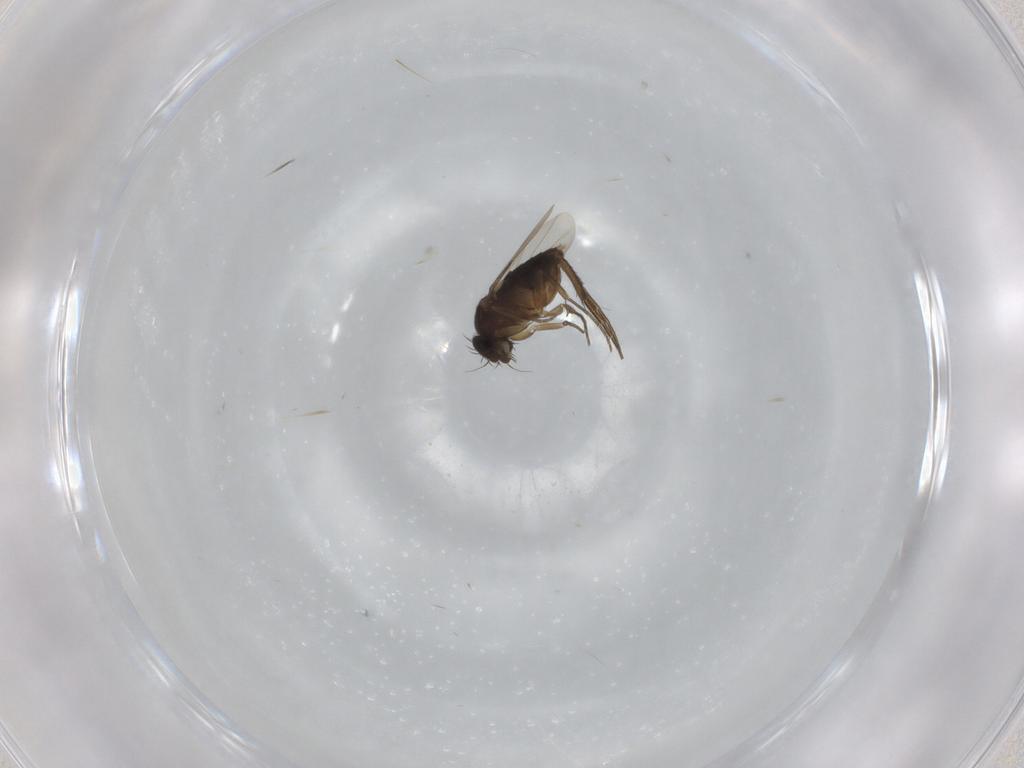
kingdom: Animalia
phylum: Arthropoda
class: Insecta
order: Diptera
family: Phoridae
